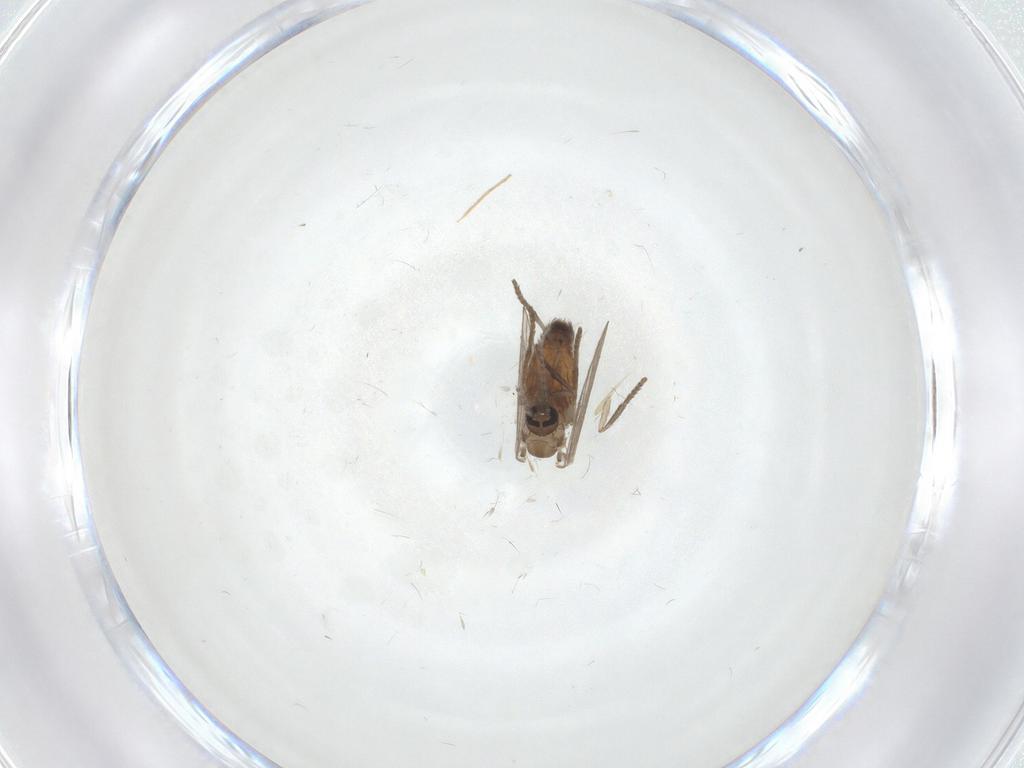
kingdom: Animalia
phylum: Arthropoda
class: Insecta
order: Diptera
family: Psychodidae
